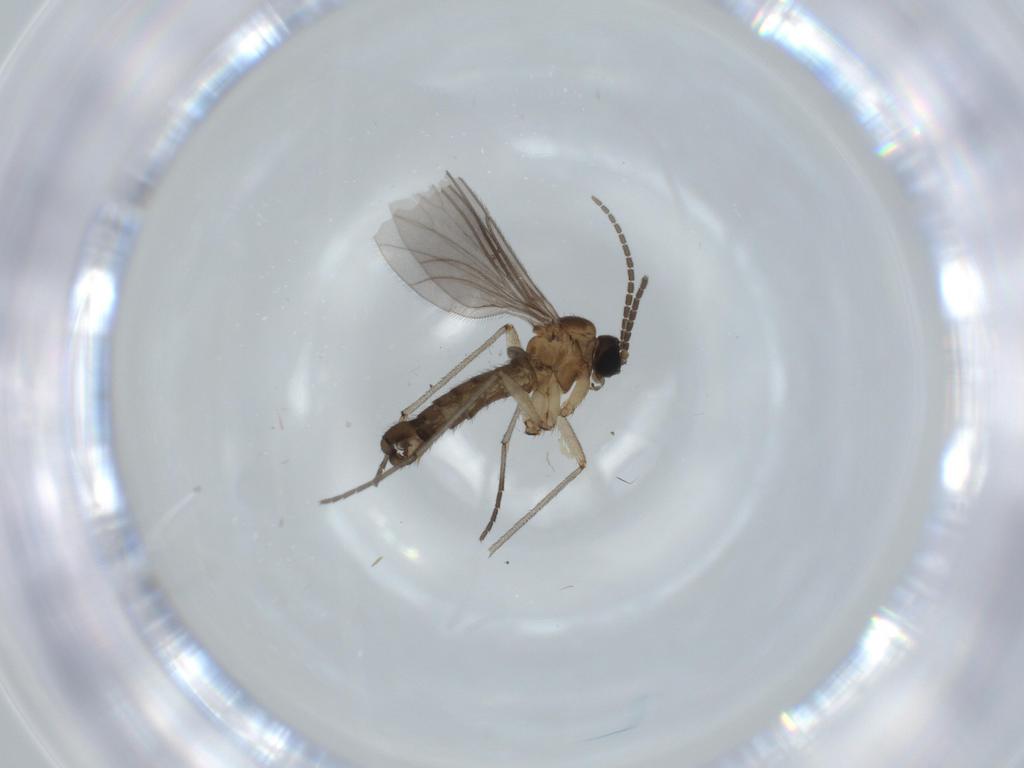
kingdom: Animalia
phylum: Arthropoda
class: Insecta
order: Diptera
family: Sciaridae
